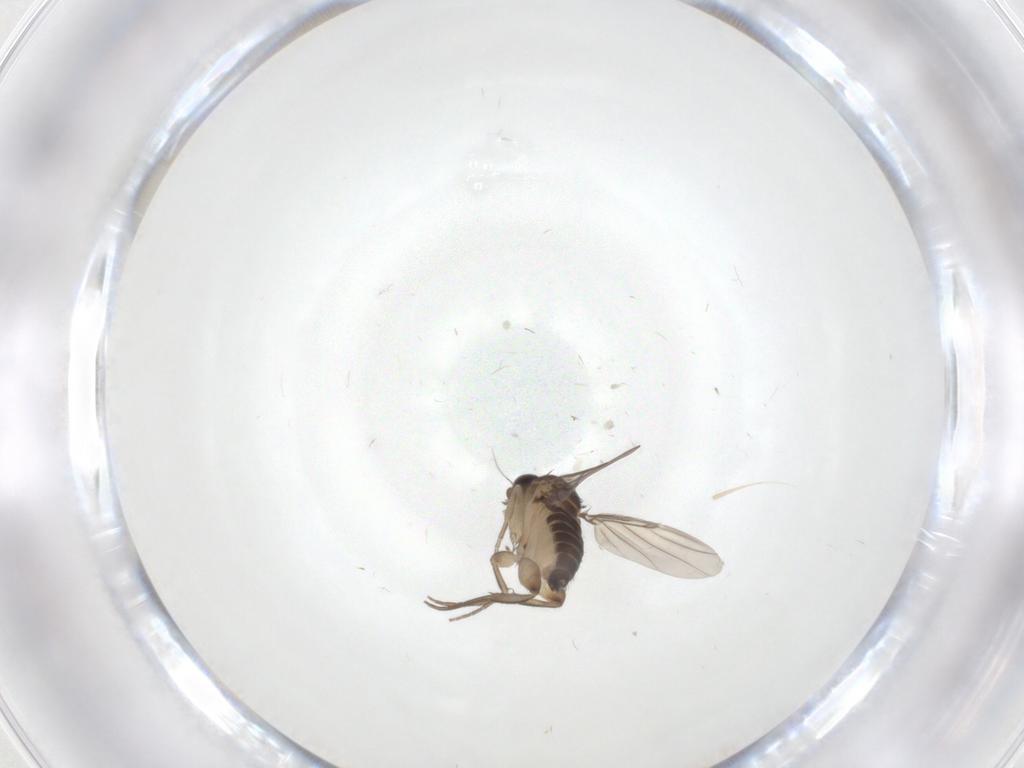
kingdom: Animalia
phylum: Arthropoda
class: Insecta
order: Diptera
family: Phoridae
